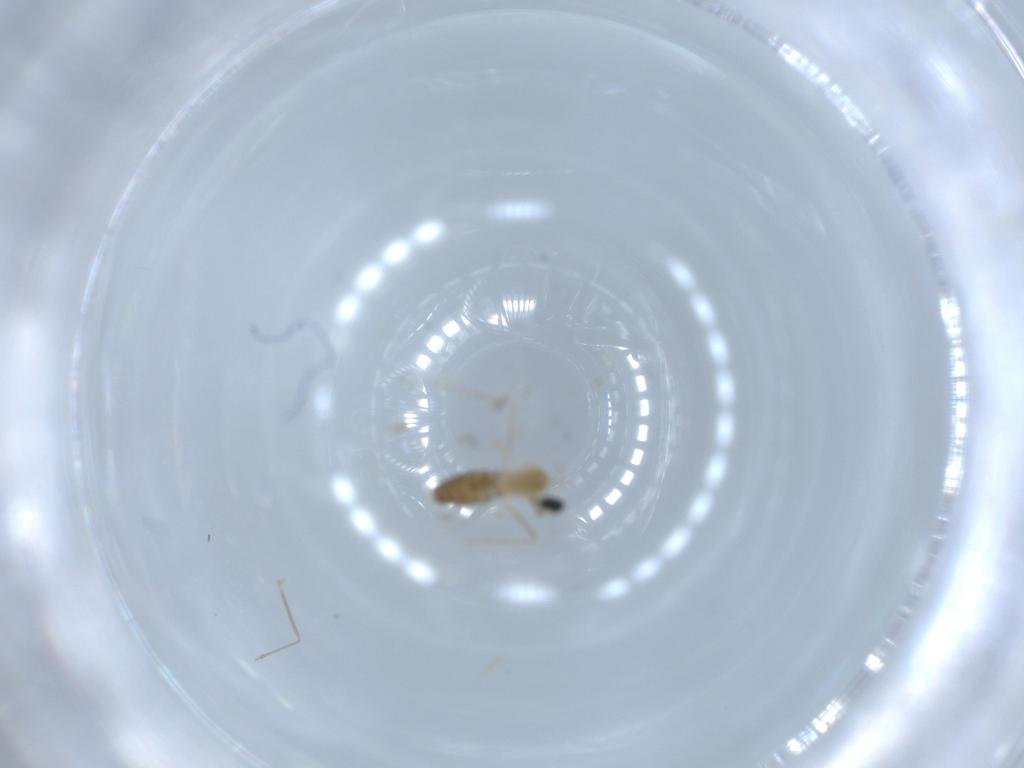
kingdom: Animalia
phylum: Arthropoda
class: Insecta
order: Diptera
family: Cecidomyiidae
